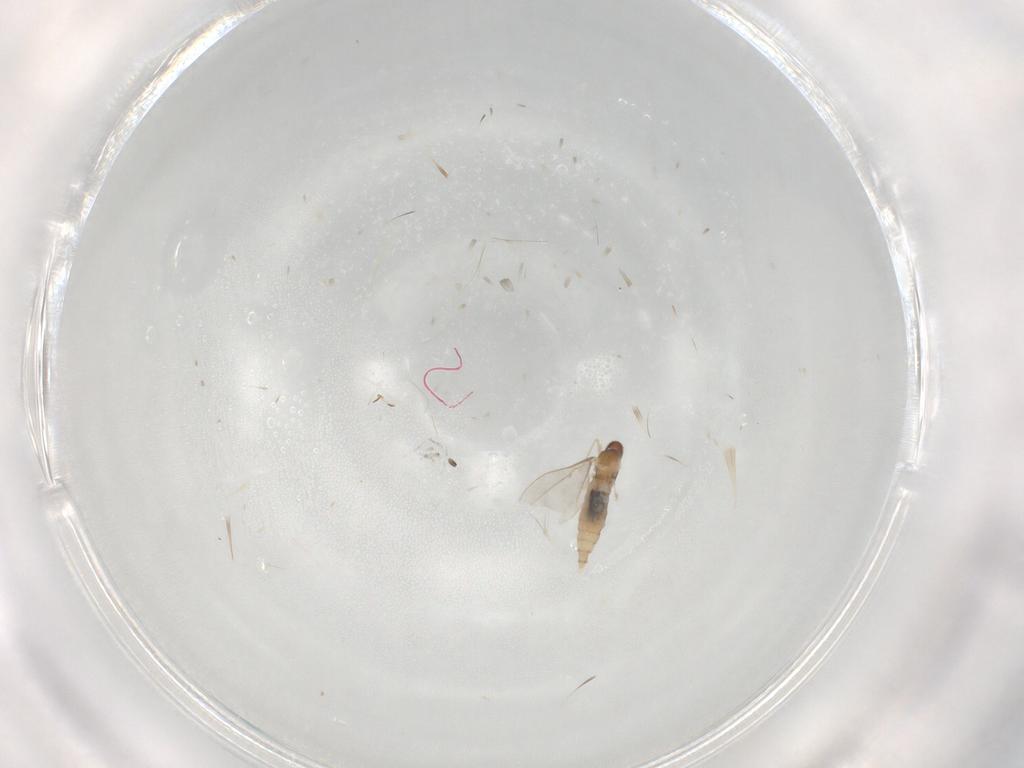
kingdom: Animalia
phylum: Arthropoda
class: Insecta
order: Diptera
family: Cecidomyiidae
